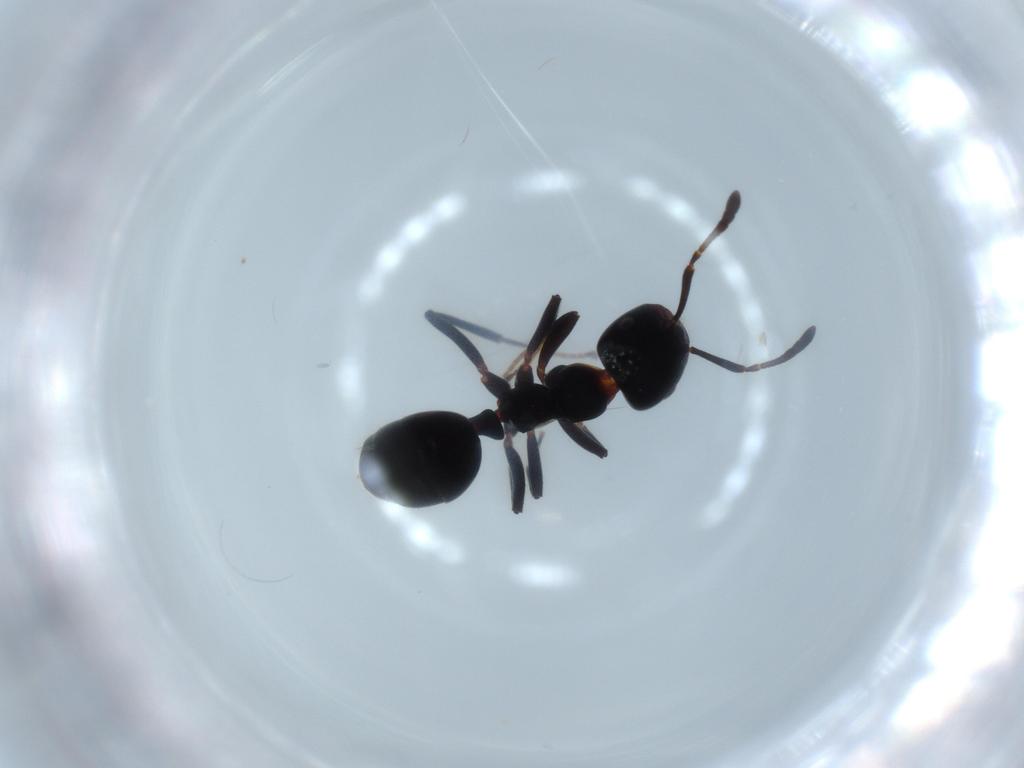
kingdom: Animalia
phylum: Arthropoda
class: Insecta
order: Hymenoptera
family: Formicidae
